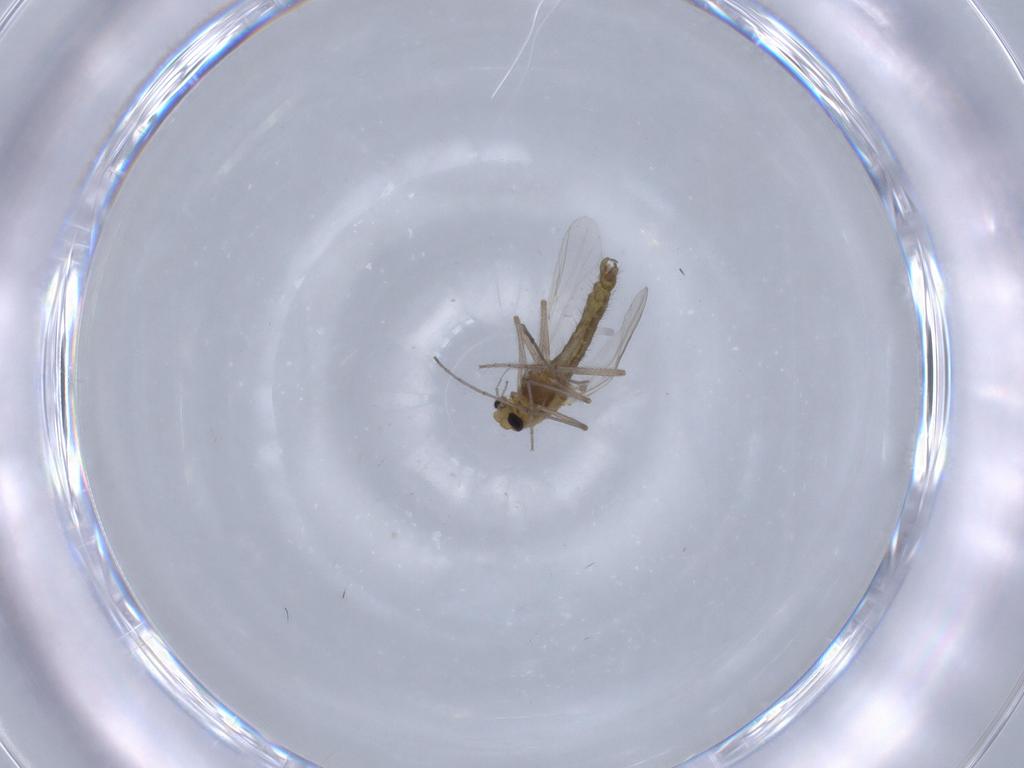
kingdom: Animalia
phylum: Arthropoda
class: Insecta
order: Diptera
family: Chironomidae
